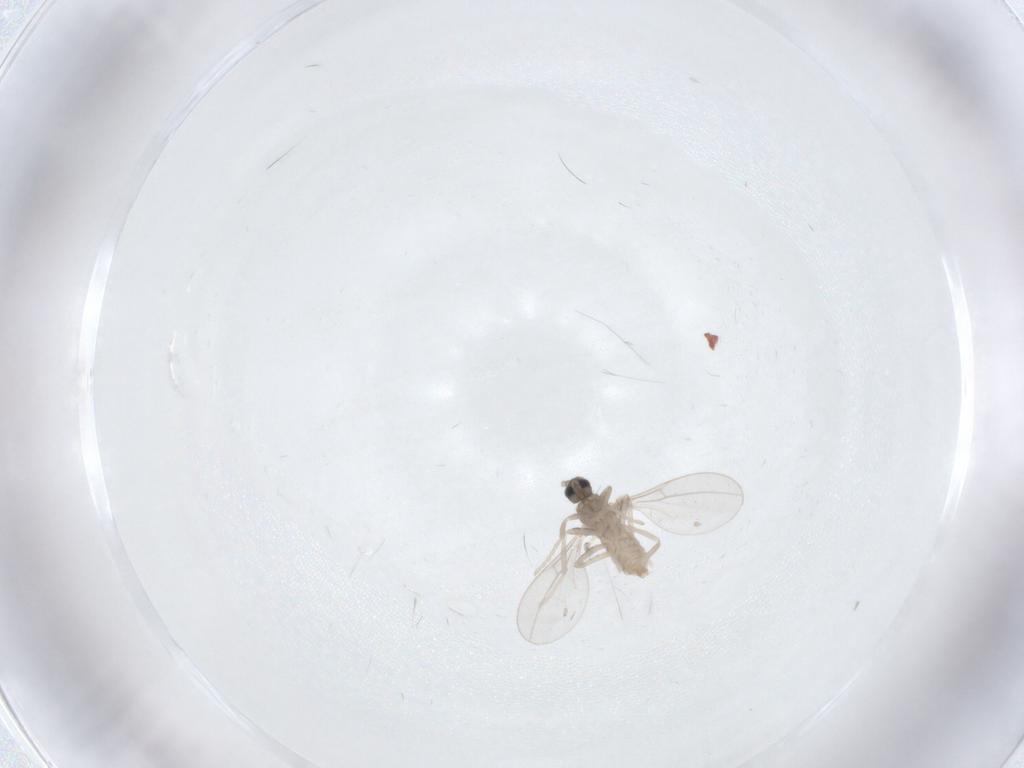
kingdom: Animalia
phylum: Arthropoda
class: Insecta
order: Diptera
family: Cecidomyiidae
